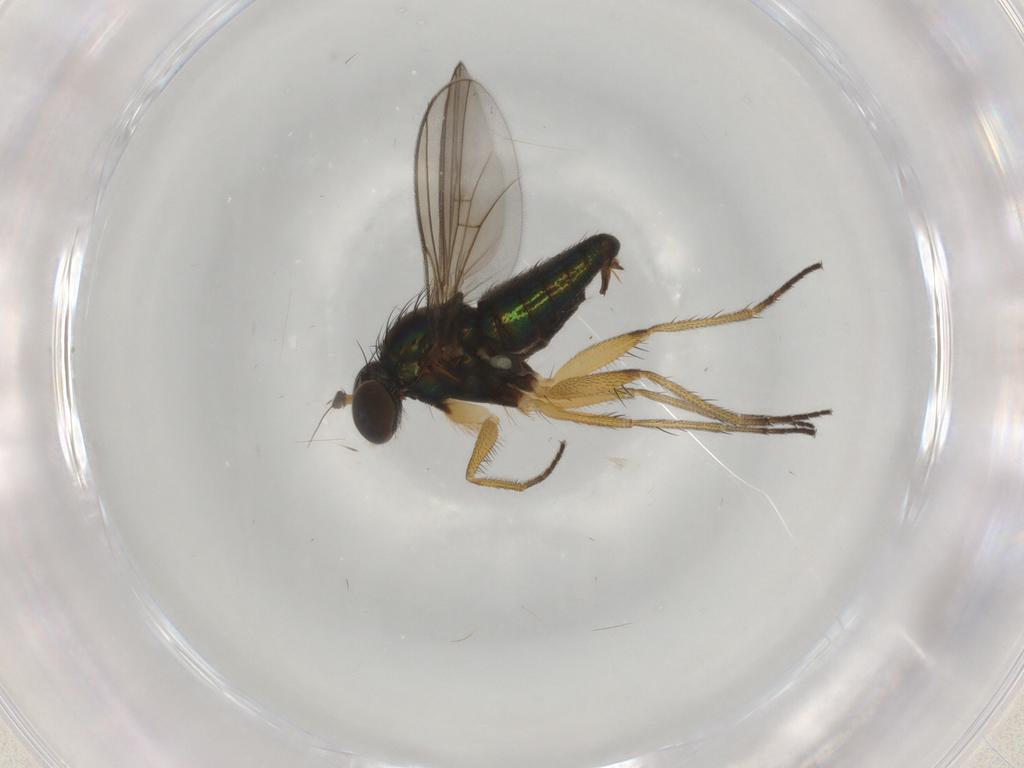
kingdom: Animalia
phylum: Arthropoda
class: Insecta
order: Diptera
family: Dolichopodidae
